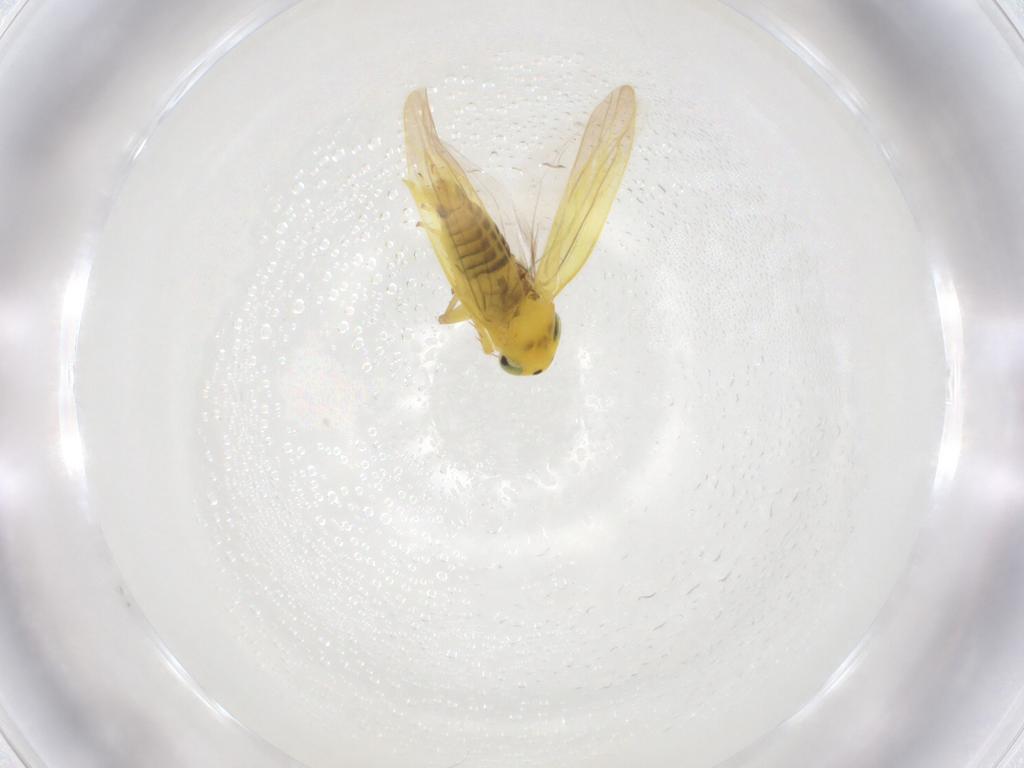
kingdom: Animalia
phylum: Arthropoda
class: Insecta
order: Hemiptera
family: Cicadellidae
